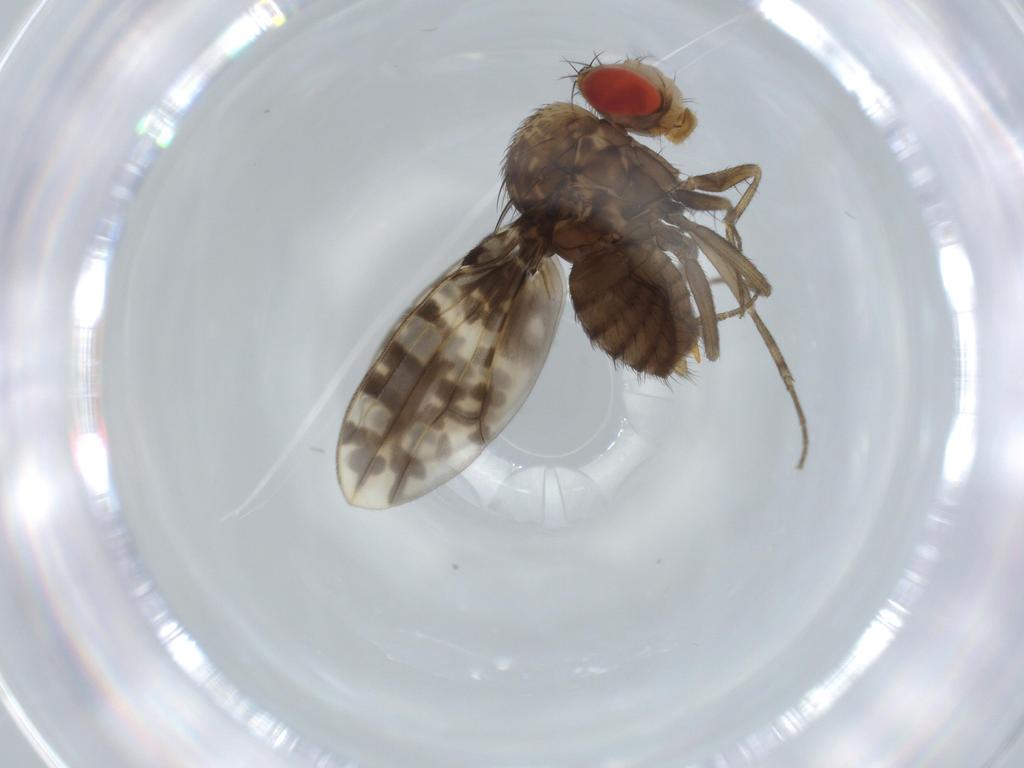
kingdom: Animalia
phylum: Arthropoda
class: Insecta
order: Diptera
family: Drosophilidae
